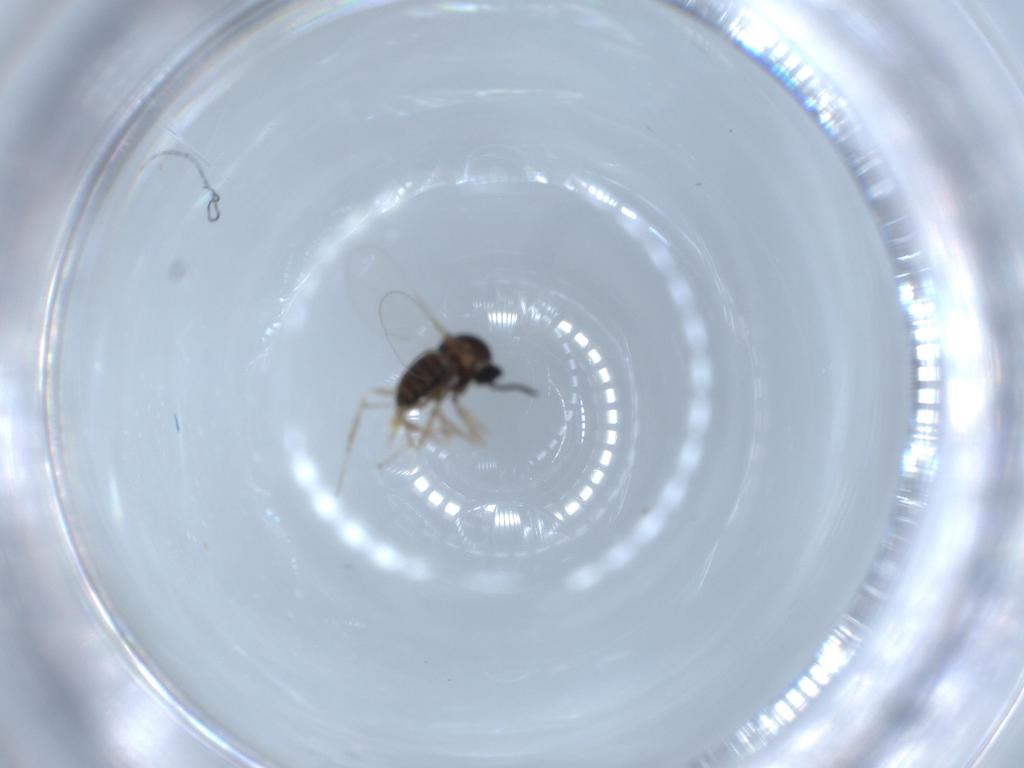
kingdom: Animalia
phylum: Arthropoda
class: Insecta
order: Diptera
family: Cecidomyiidae
